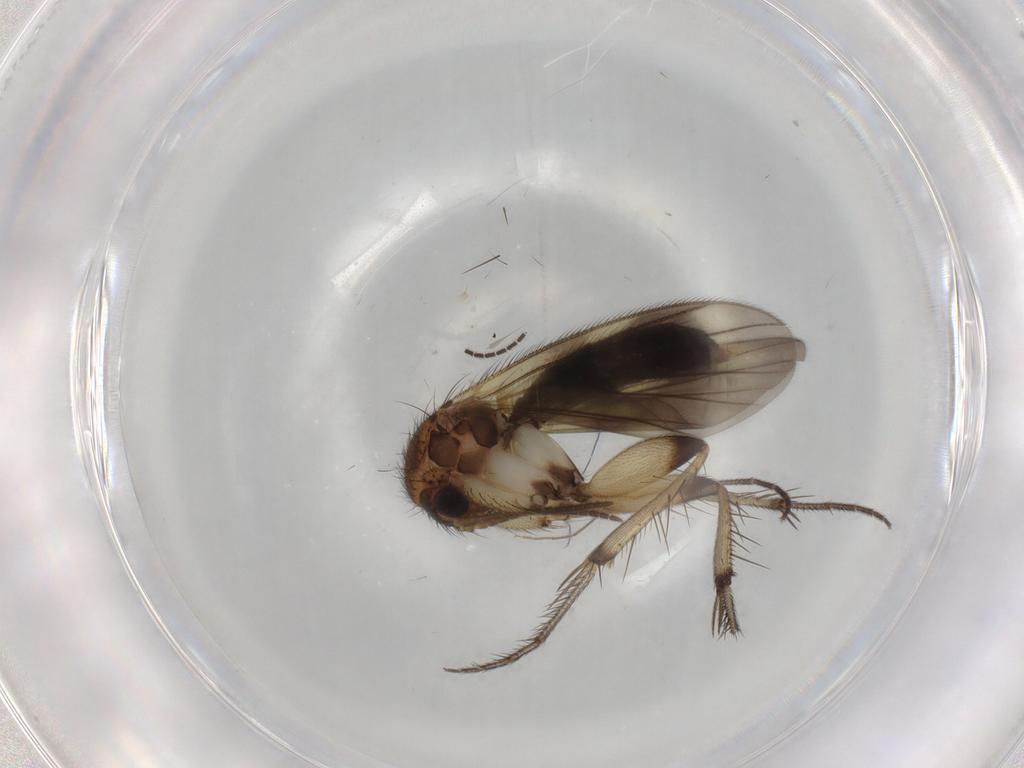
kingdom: Animalia
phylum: Arthropoda
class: Insecta
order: Diptera
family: Mycetophilidae
